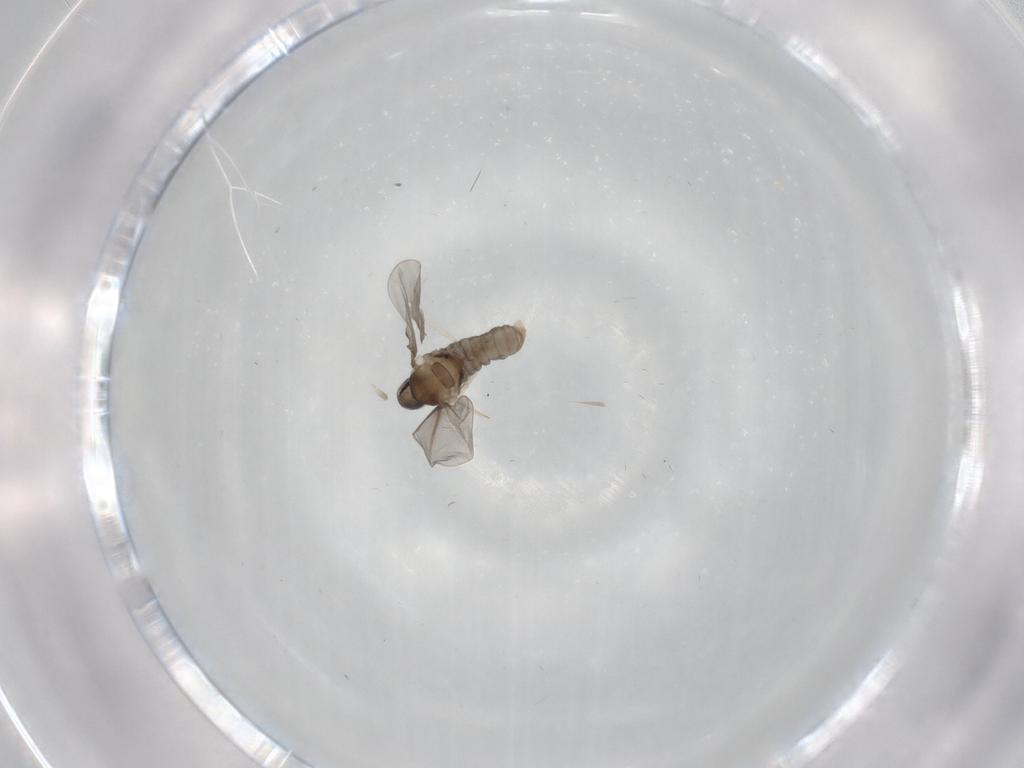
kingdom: Animalia
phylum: Arthropoda
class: Insecta
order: Diptera
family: Cecidomyiidae
